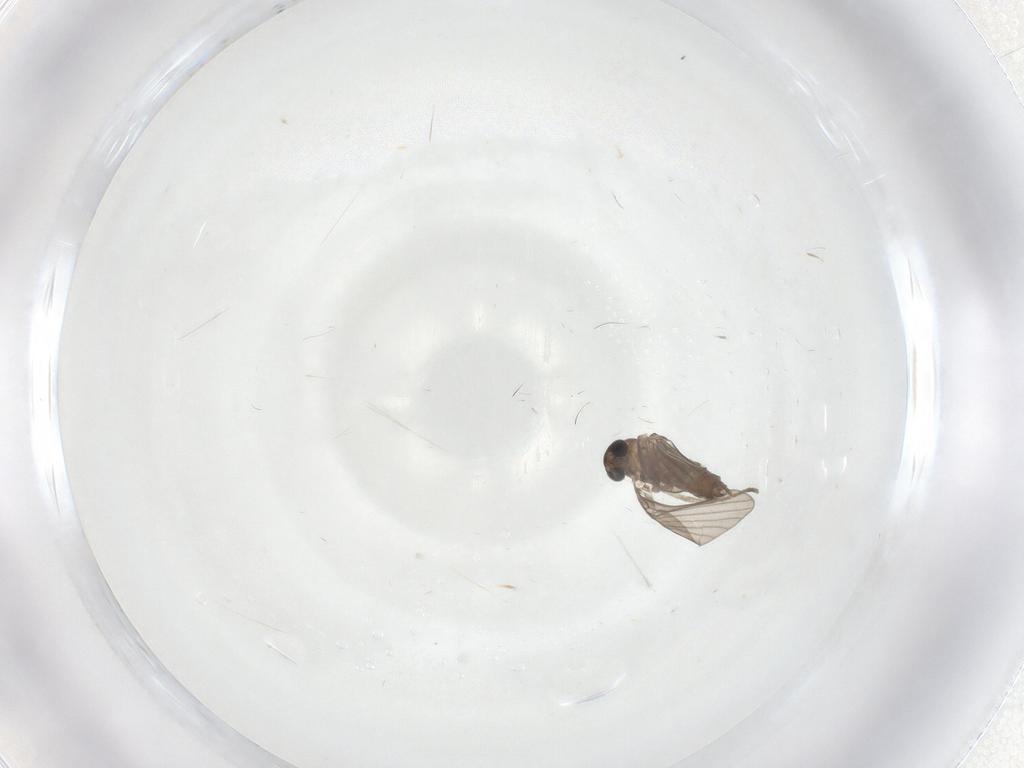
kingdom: Animalia
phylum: Arthropoda
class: Insecta
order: Diptera
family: Psychodidae
